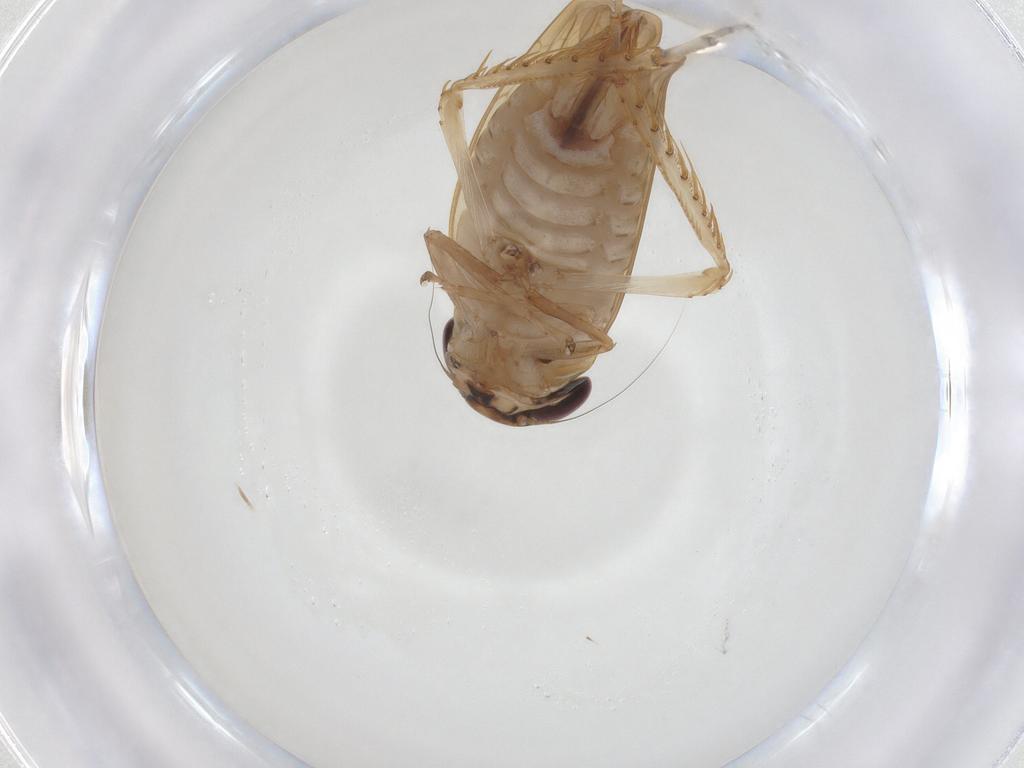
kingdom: Animalia
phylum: Arthropoda
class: Insecta
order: Hemiptera
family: Cicadellidae
